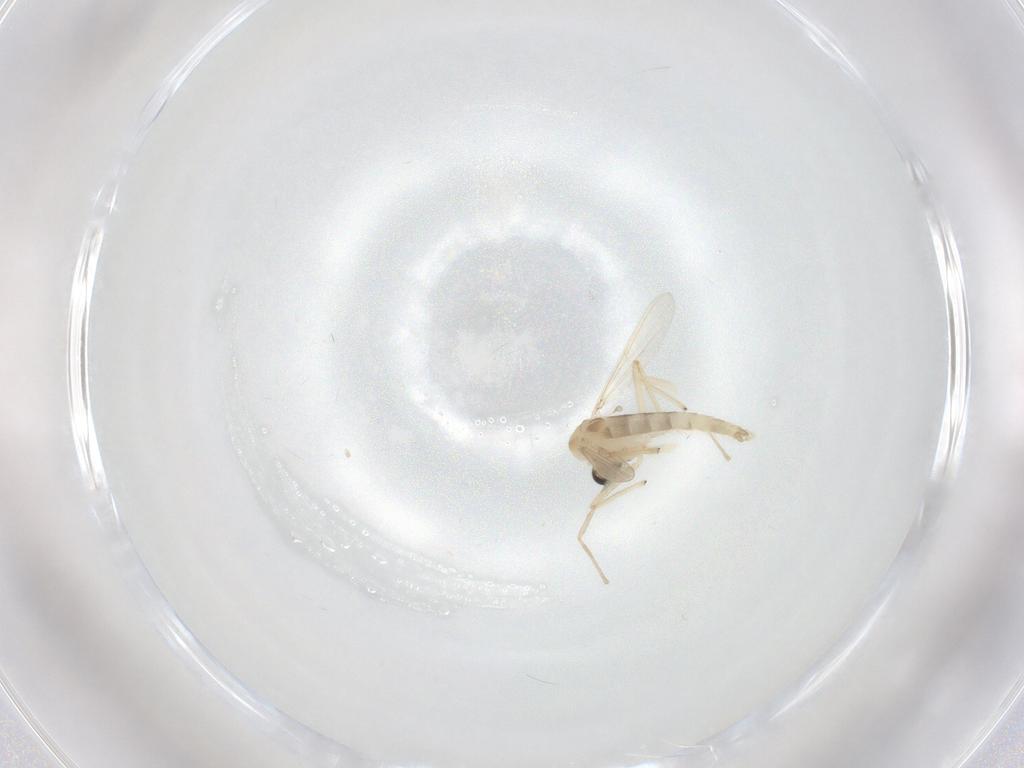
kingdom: Animalia
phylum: Arthropoda
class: Insecta
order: Diptera
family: Chironomidae
